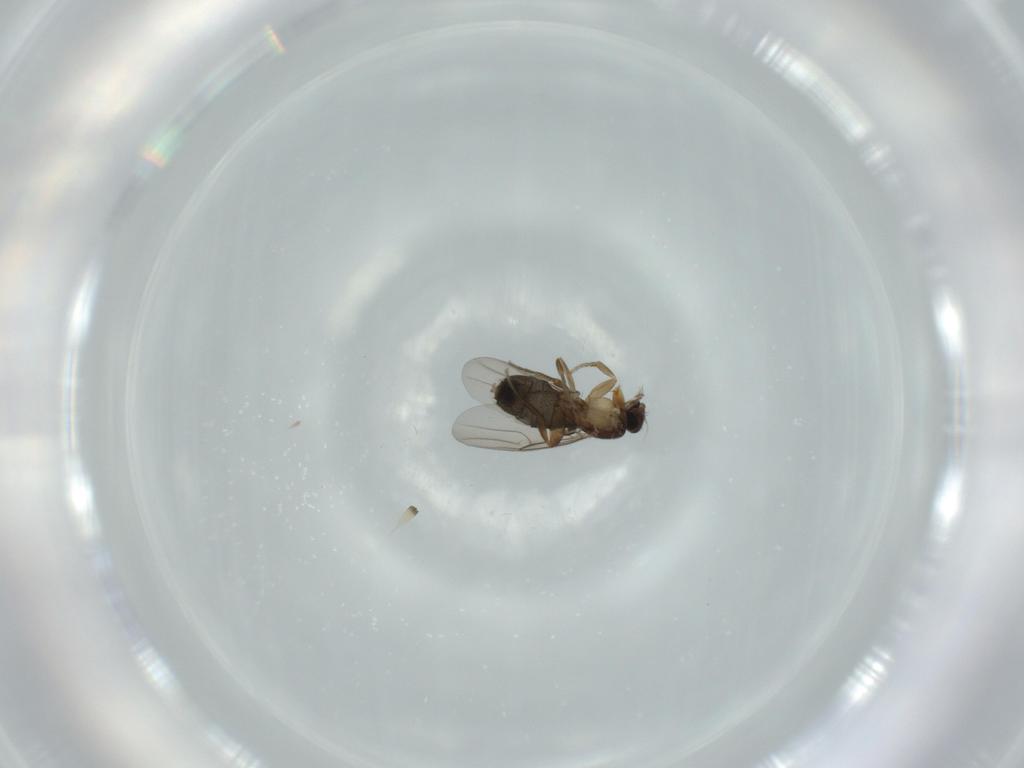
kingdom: Animalia
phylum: Arthropoda
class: Insecta
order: Diptera
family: Phoridae
